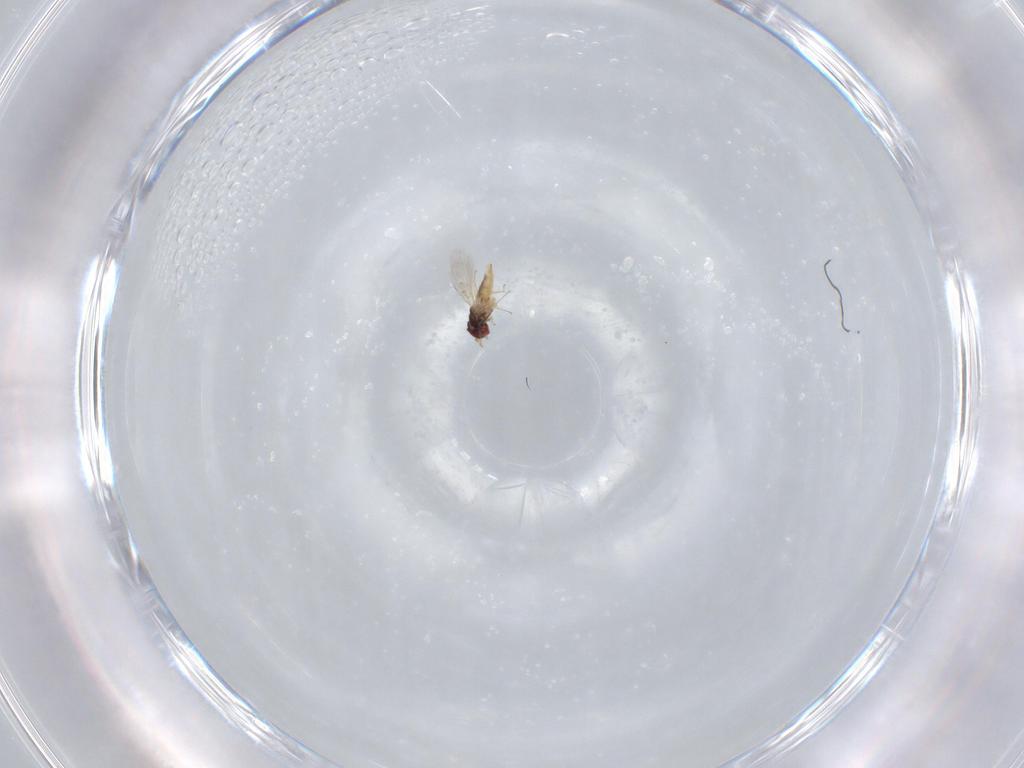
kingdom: Animalia
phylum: Arthropoda
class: Insecta
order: Hymenoptera
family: Trichogrammatidae
